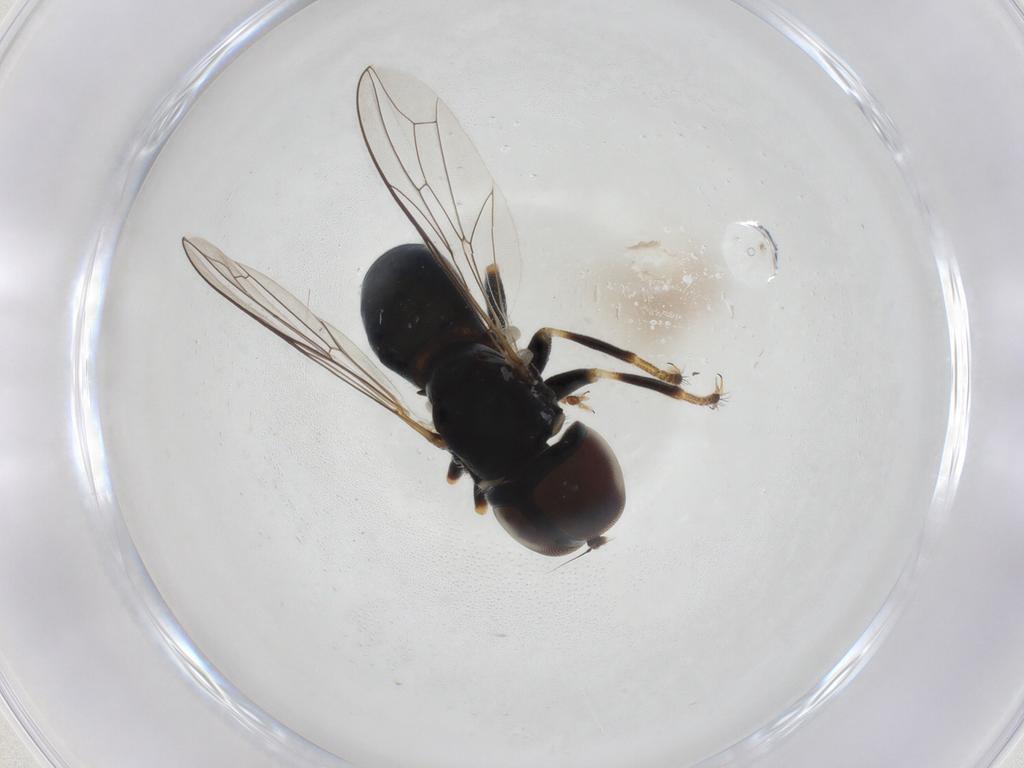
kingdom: Animalia
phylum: Arthropoda
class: Insecta
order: Diptera
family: Pipunculidae
